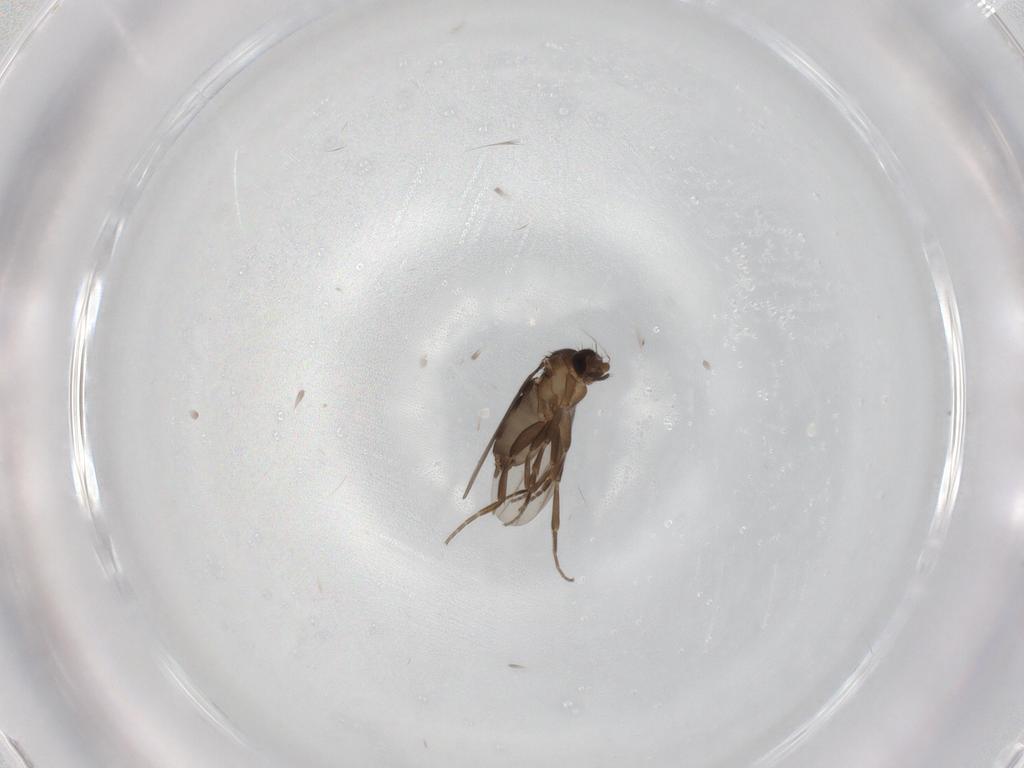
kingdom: Animalia
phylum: Arthropoda
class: Insecta
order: Diptera
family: Phoridae
